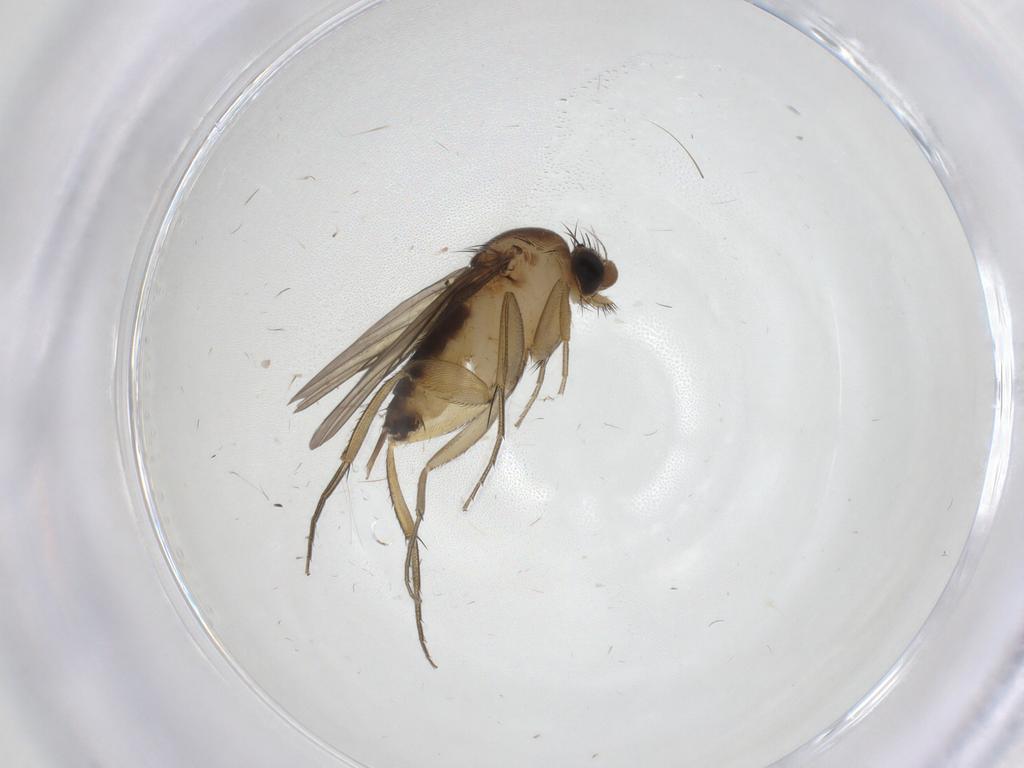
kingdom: Animalia
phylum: Arthropoda
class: Insecta
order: Diptera
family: Phoridae
